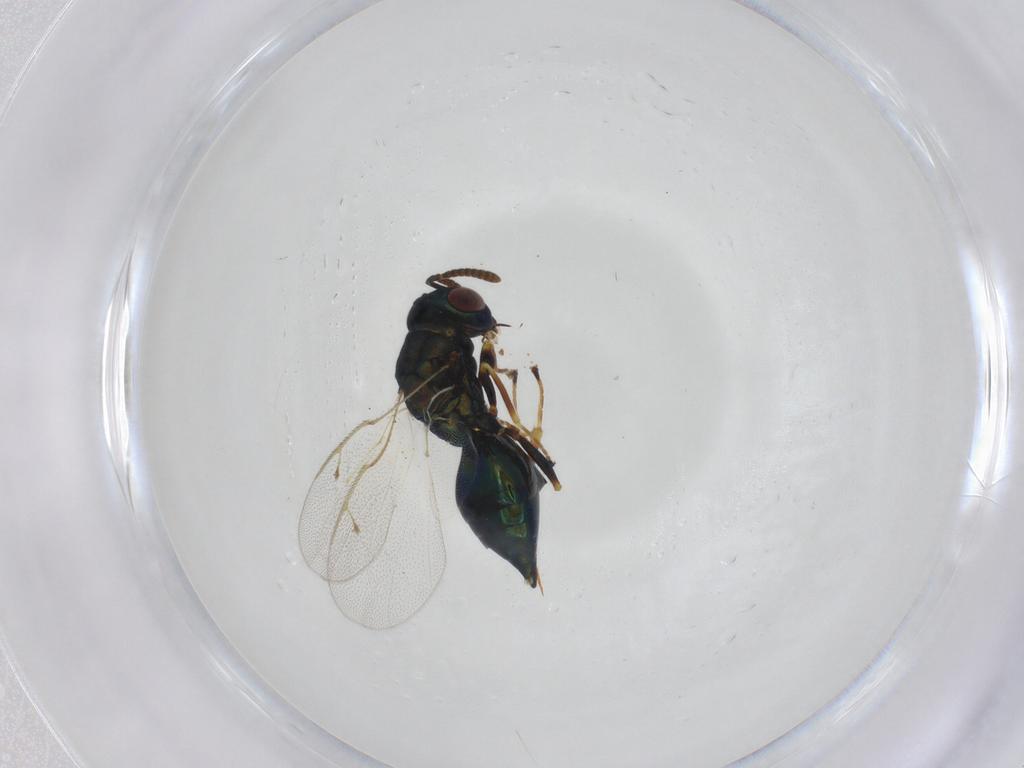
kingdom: Animalia
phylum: Arthropoda
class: Insecta
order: Hymenoptera
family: Pteromalidae
